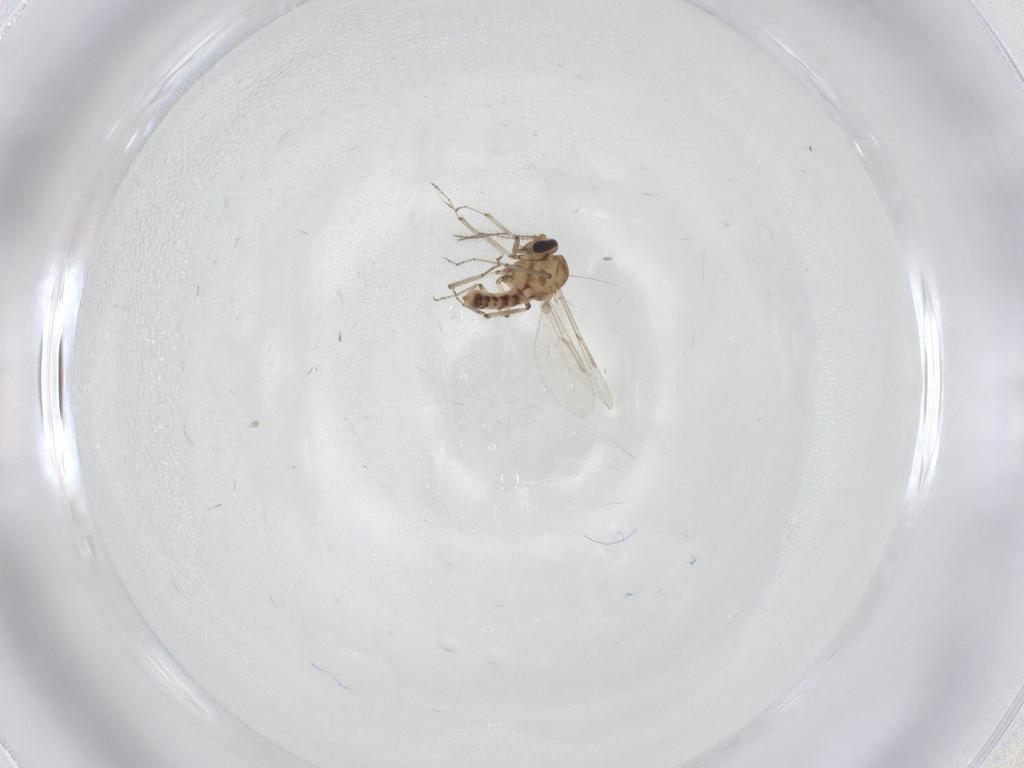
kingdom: Animalia
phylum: Arthropoda
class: Insecta
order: Diptera
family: Ceratopogonidae
